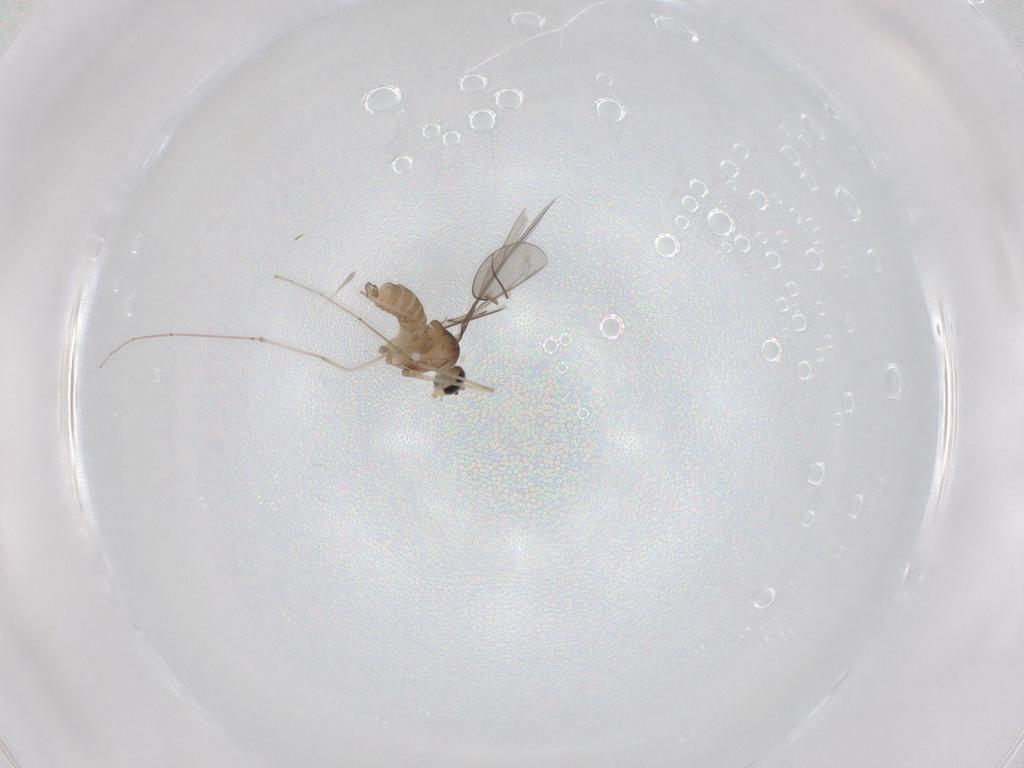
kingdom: Animalia
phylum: Arthropoda
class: Insecta
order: Diptera
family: Cecidomyiidae
